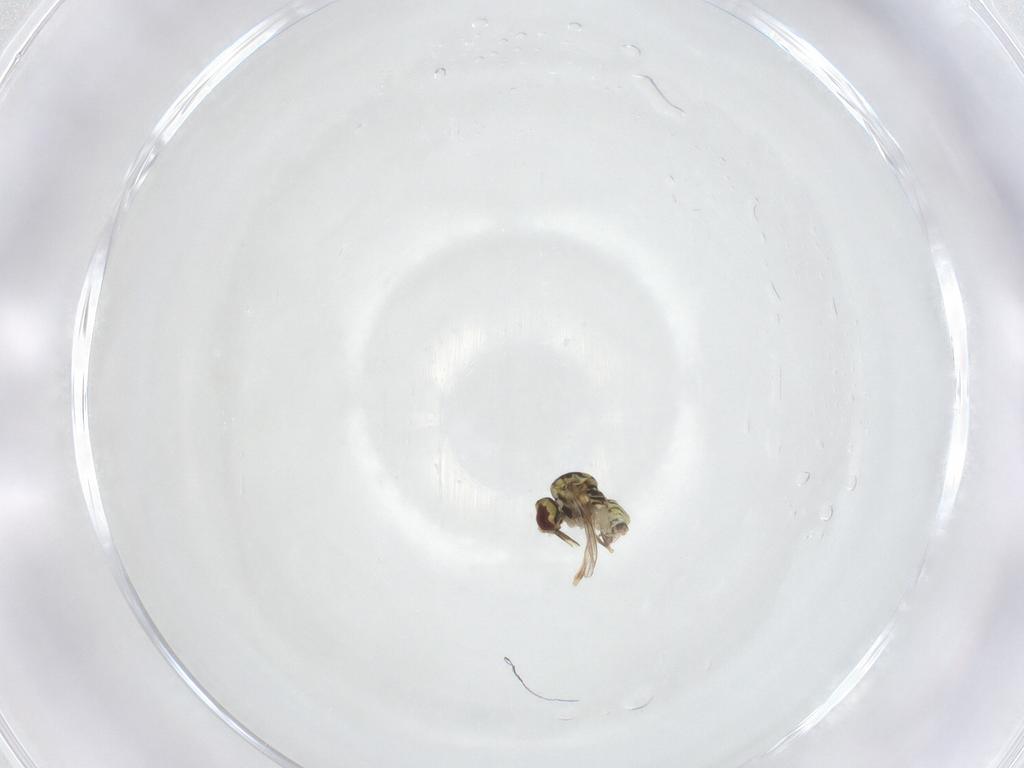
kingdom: Animalia
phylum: Arthropoda
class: Insecta
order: Diptera
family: Bombyliidae
